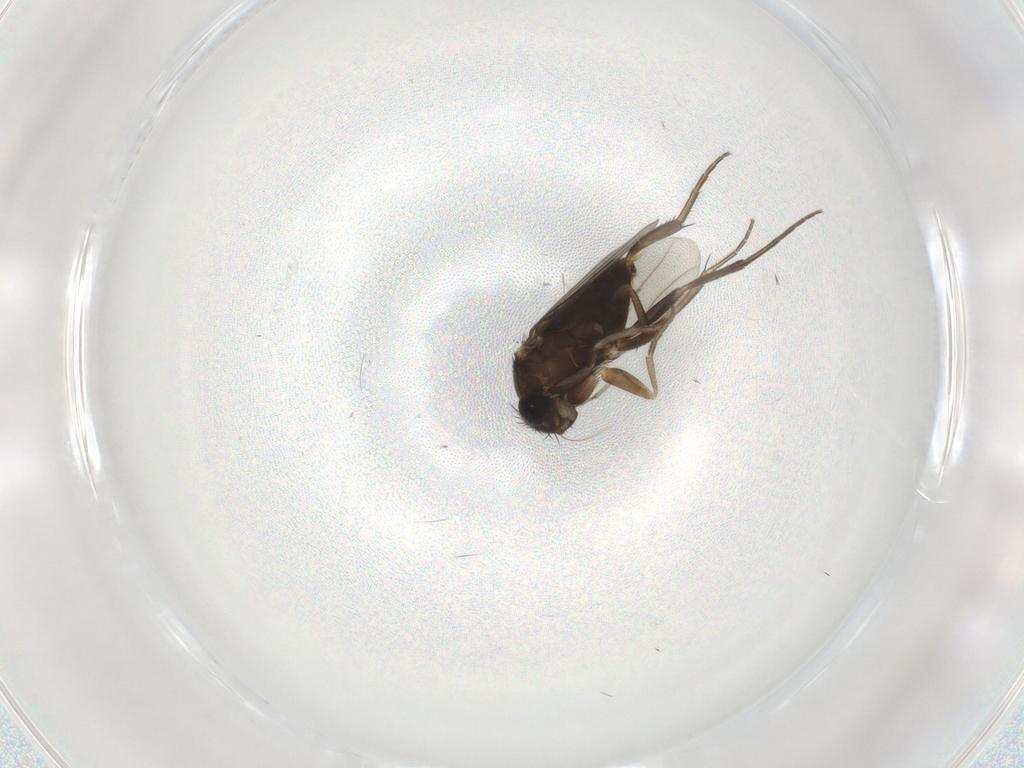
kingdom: Animalia
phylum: Arthropoda
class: Insecta
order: Diptera
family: Phoridae
